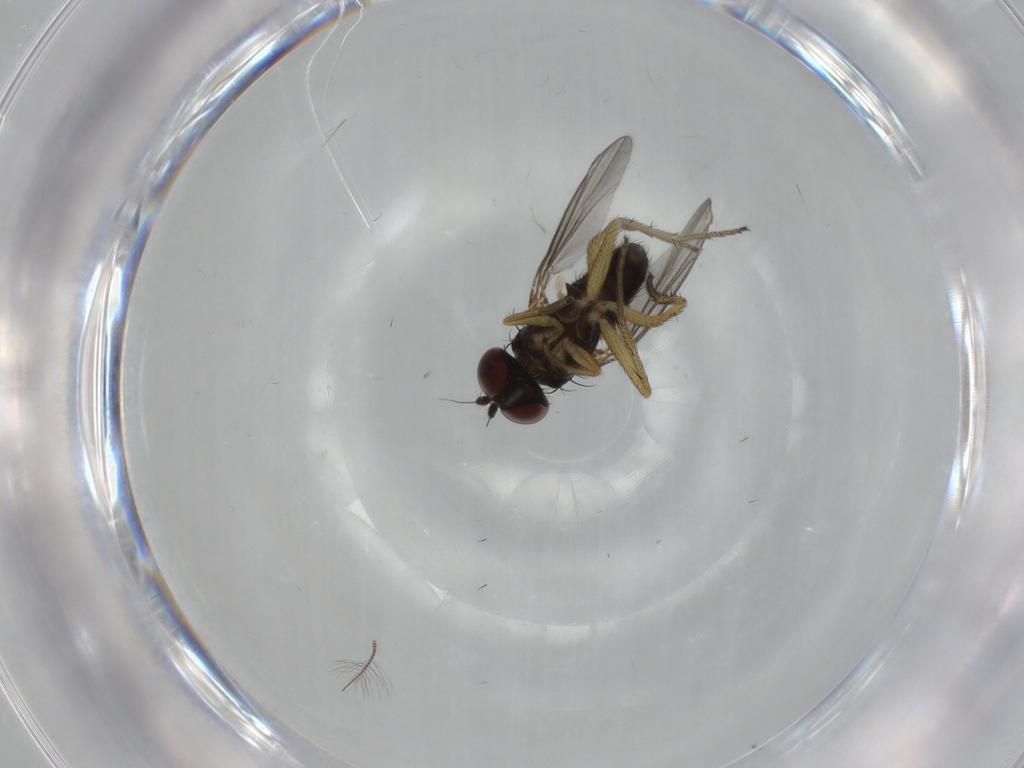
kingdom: Animalia
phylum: Arthropoda
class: Insecta
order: Diptera
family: Dolichopodidae
